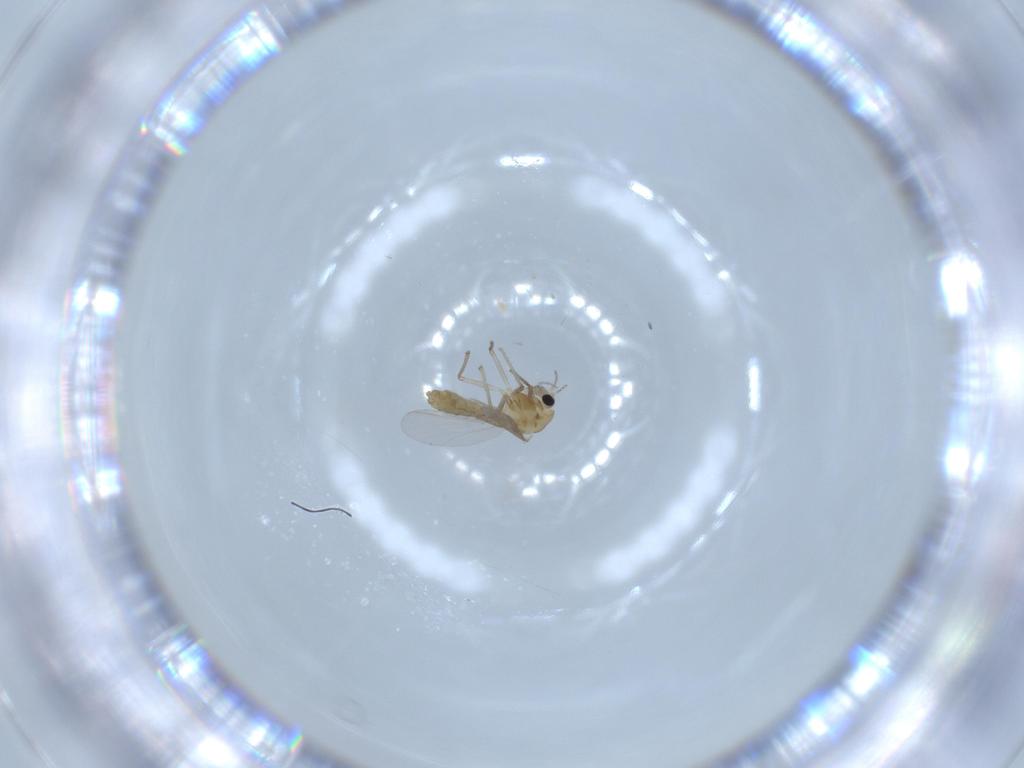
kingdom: Animalia
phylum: Arthropoda
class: Insecta
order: Diptera
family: Chironomidae
